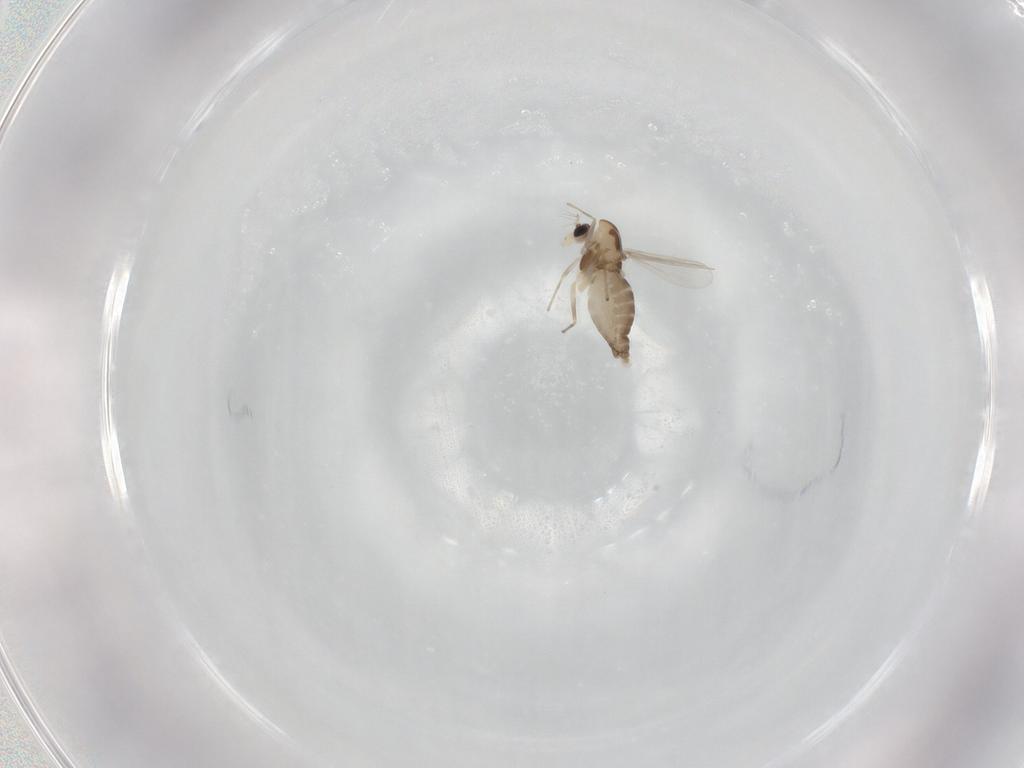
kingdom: Animalia
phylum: Arthropoda
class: Insecta
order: Diptera
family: Chironomidae
